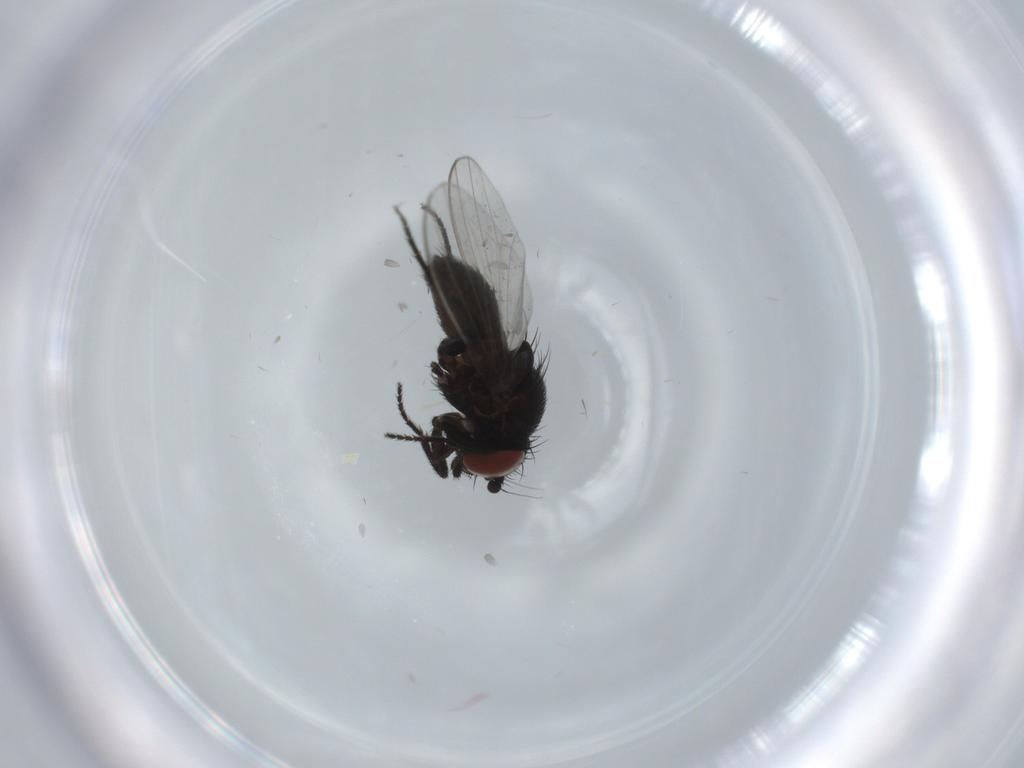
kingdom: Animalia
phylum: Arthropoda
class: Insecta
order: Diptera
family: Milichiidae
